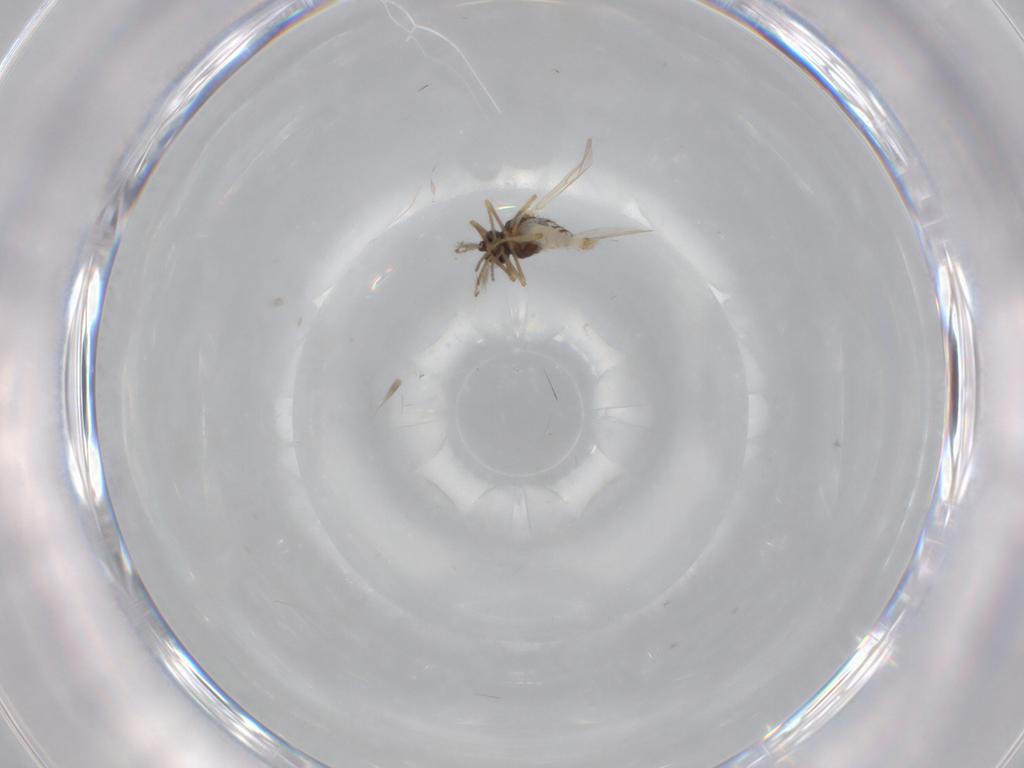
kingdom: Animalia
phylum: Arthropoda
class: Insecta
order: Diptera
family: Ceratopogonidae
